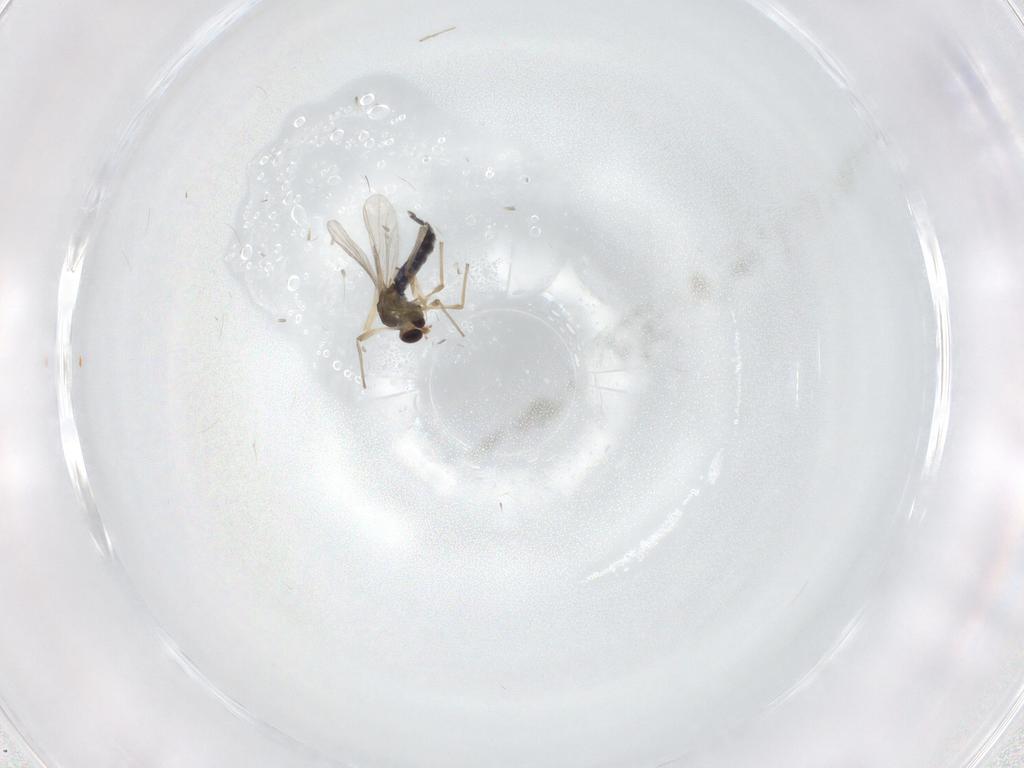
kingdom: Animalia
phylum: Arthropoda
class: Insecta
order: Diptera
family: Chironomidae
